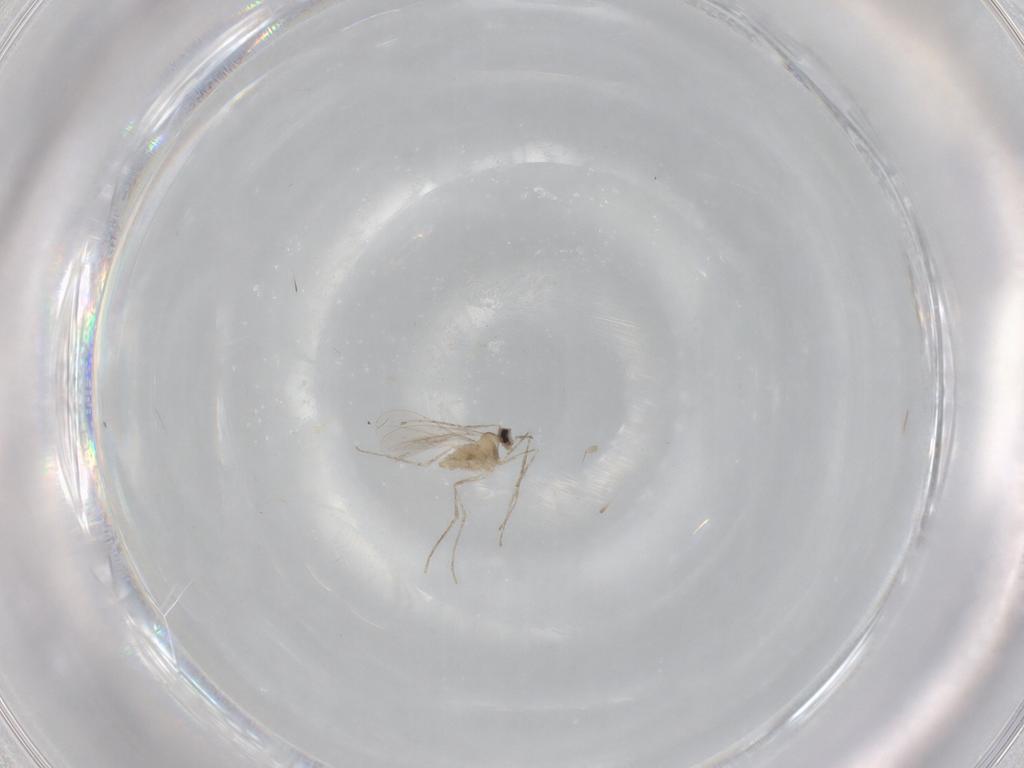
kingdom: Animalia
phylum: Arthropoda
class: Insecta
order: Diptera
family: Cecidomyiidae
